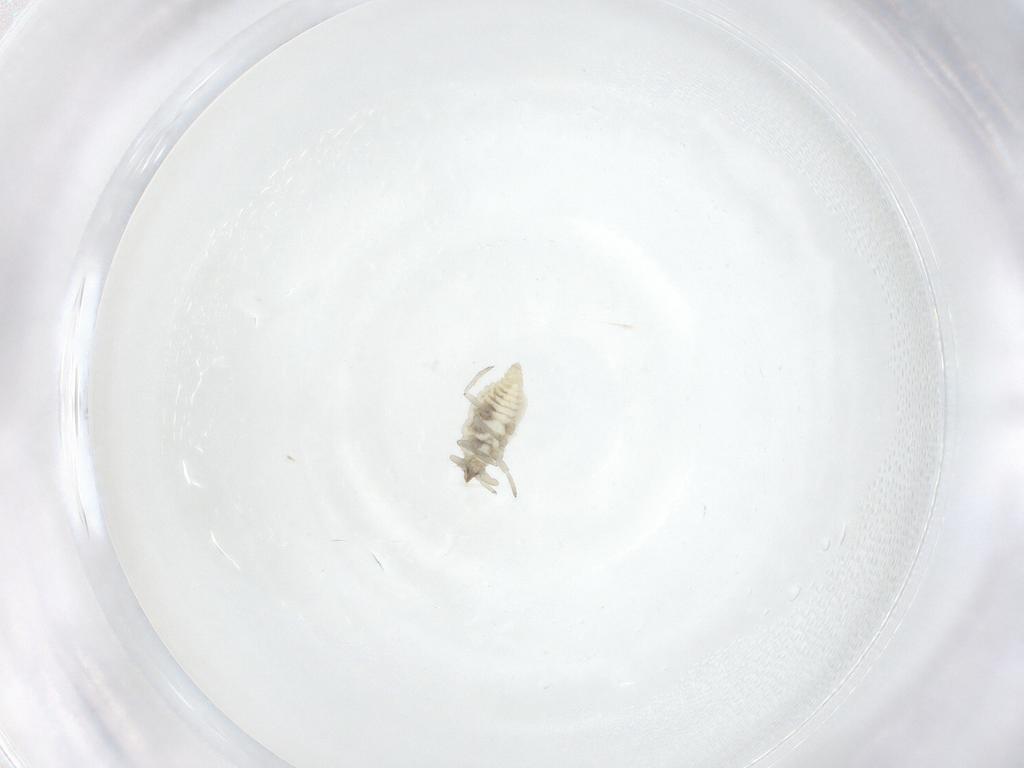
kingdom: Animalia
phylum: Arthropoda
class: Insecta
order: Neuroptera
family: Coniopterygidae
